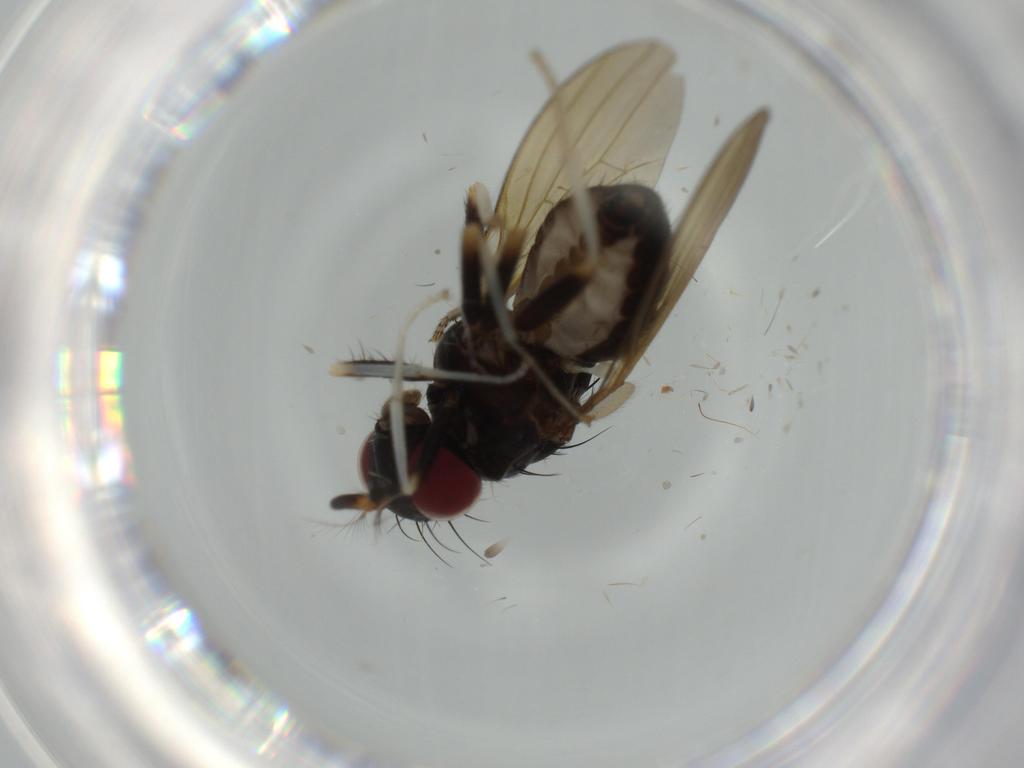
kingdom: Animalia
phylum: Arthropoda
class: Insecta
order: Diptera
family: Lauxaniidae
